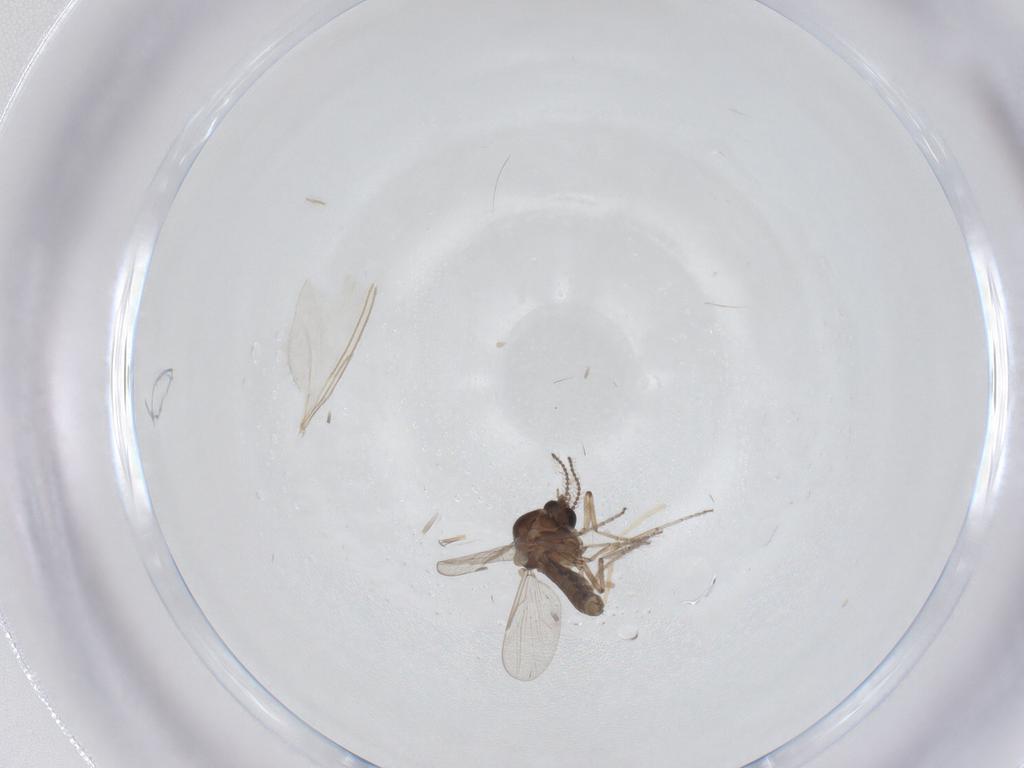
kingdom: Animalia
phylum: Arthropoda
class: Insecta
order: Diptera
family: Ceratopogonidae
